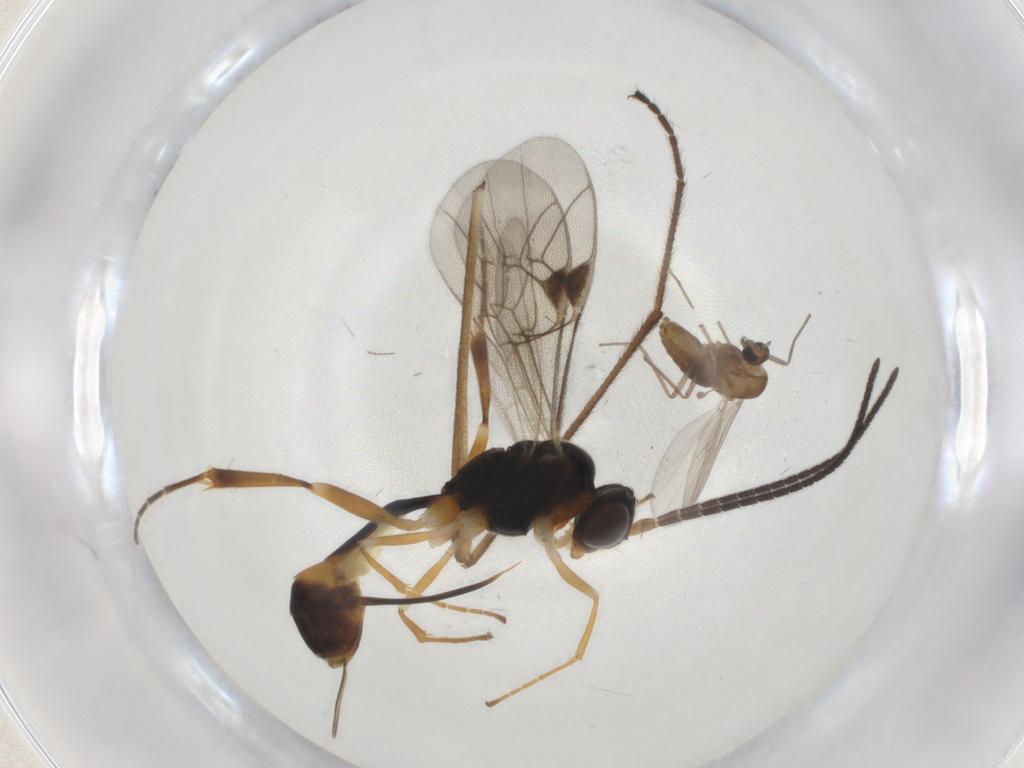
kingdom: Animalia
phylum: Arthropoda
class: Insecta
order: Diptera
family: Chironomidae
